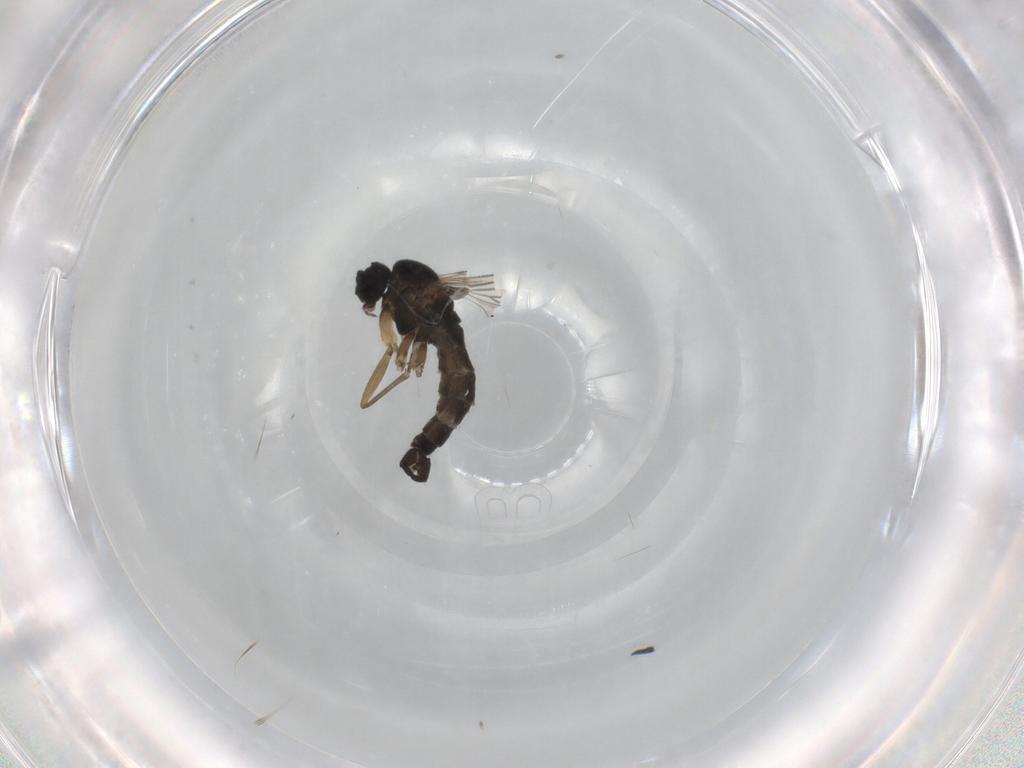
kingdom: Animalia
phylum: Arthropoda
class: Insecta
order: Diptera
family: Sciaridae
